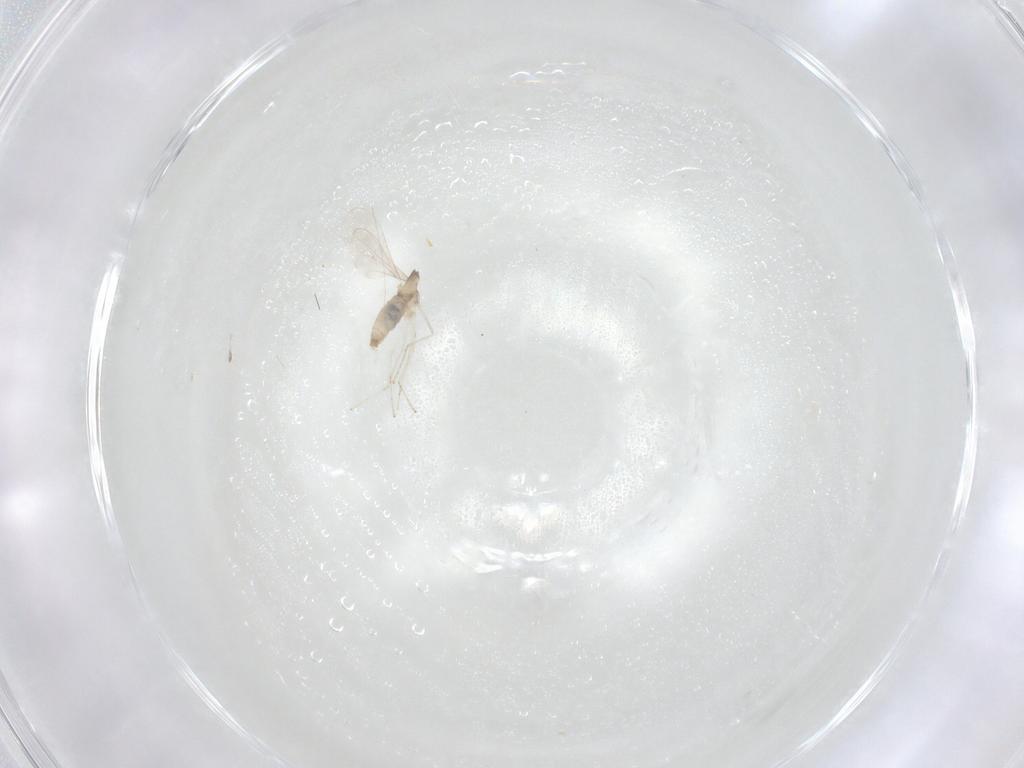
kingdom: Animalia
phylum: Arthropoda
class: Insecta
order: Diptera
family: Cecidomyiidae
